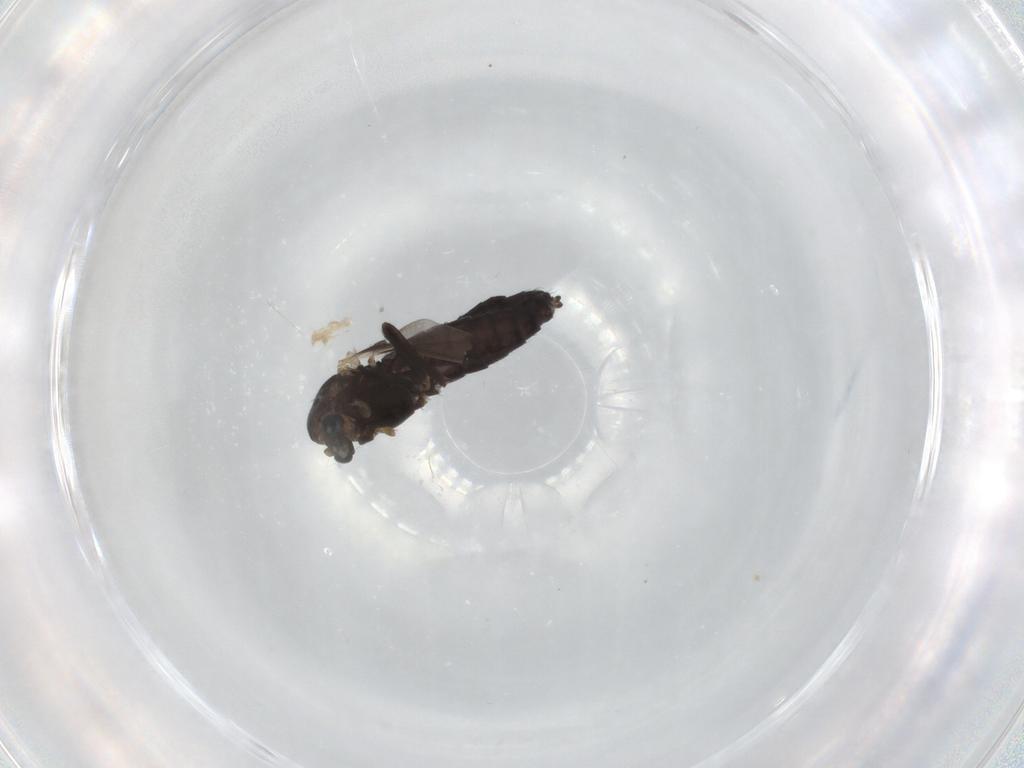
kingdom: Animalia
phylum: Arthropoda
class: Insecta
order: Diptera
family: Chironomidae
